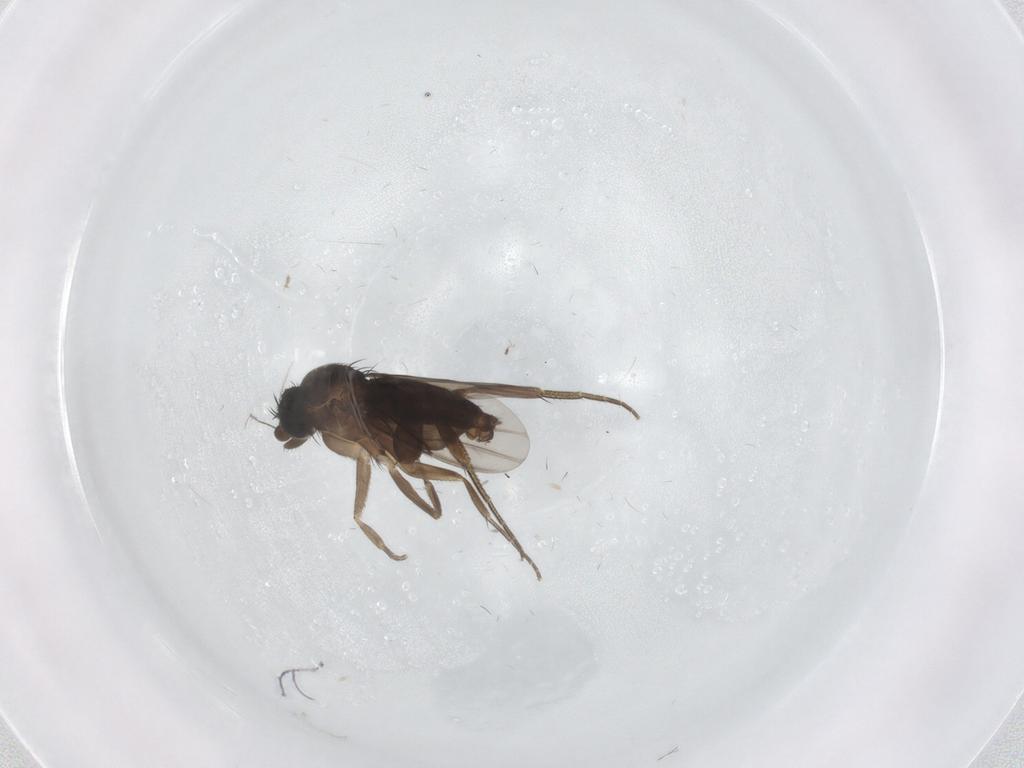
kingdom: Animalia
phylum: Arthropoda
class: Insecta
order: Diptera
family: Phoridae
